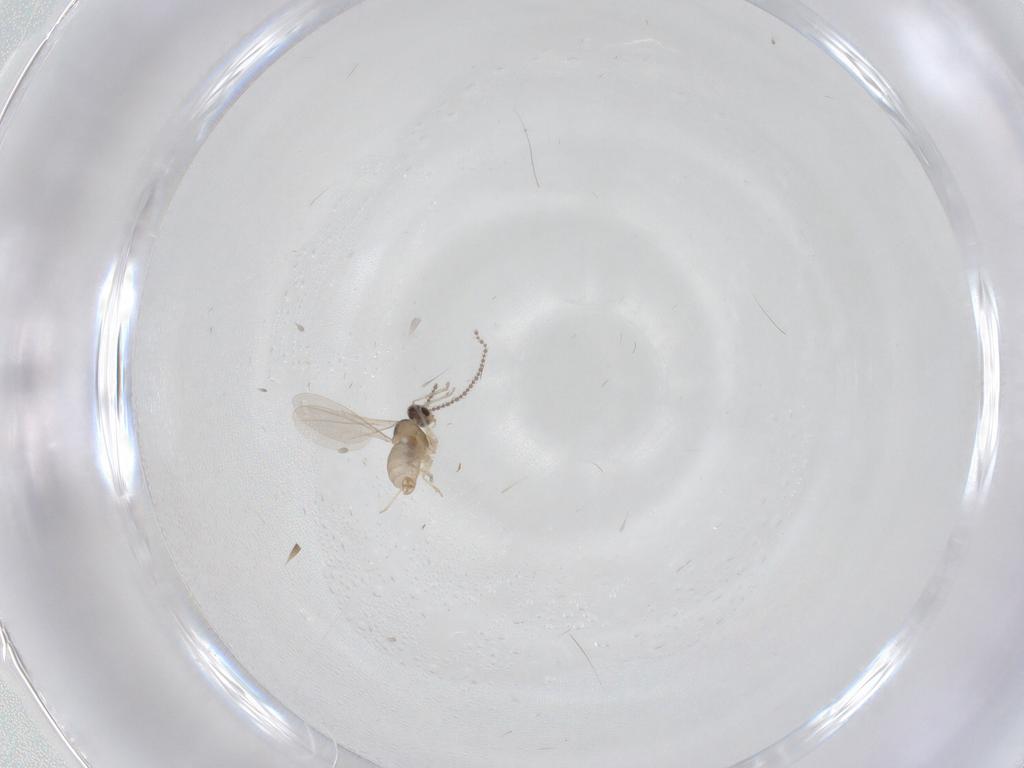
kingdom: Animalia
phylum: Arthropoda
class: Insecta
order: Diptera
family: Cecidomyiidae
